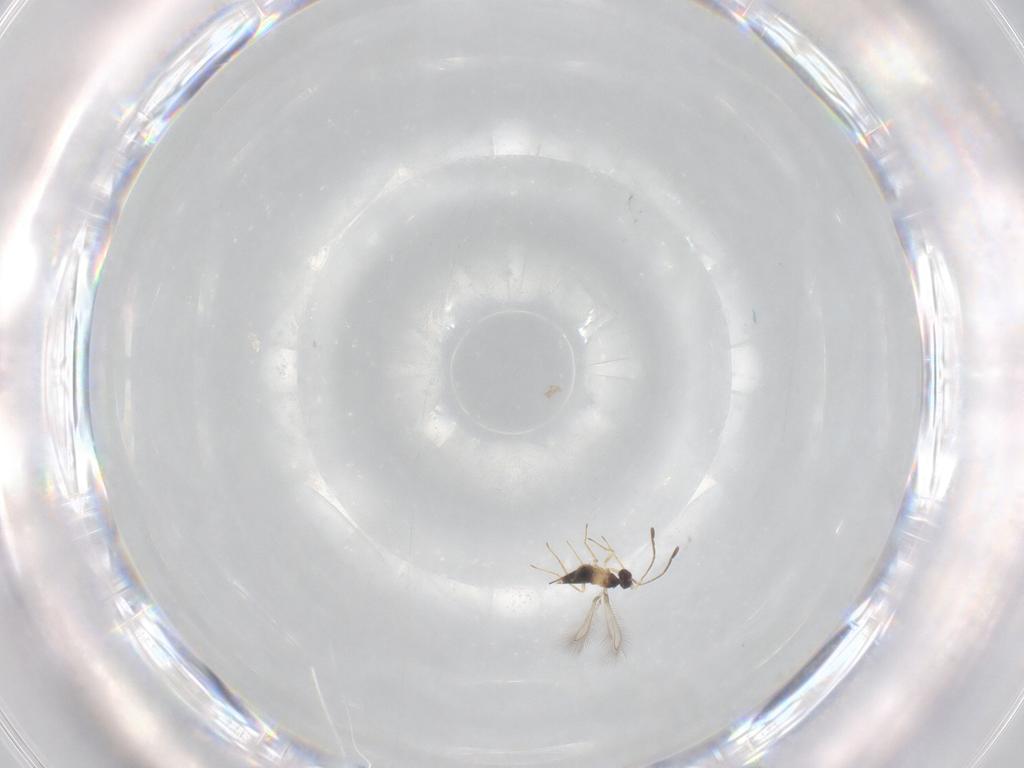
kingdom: Animalia
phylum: Arthropoda
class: Insecta
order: Hymenoptera
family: Mymaridae
